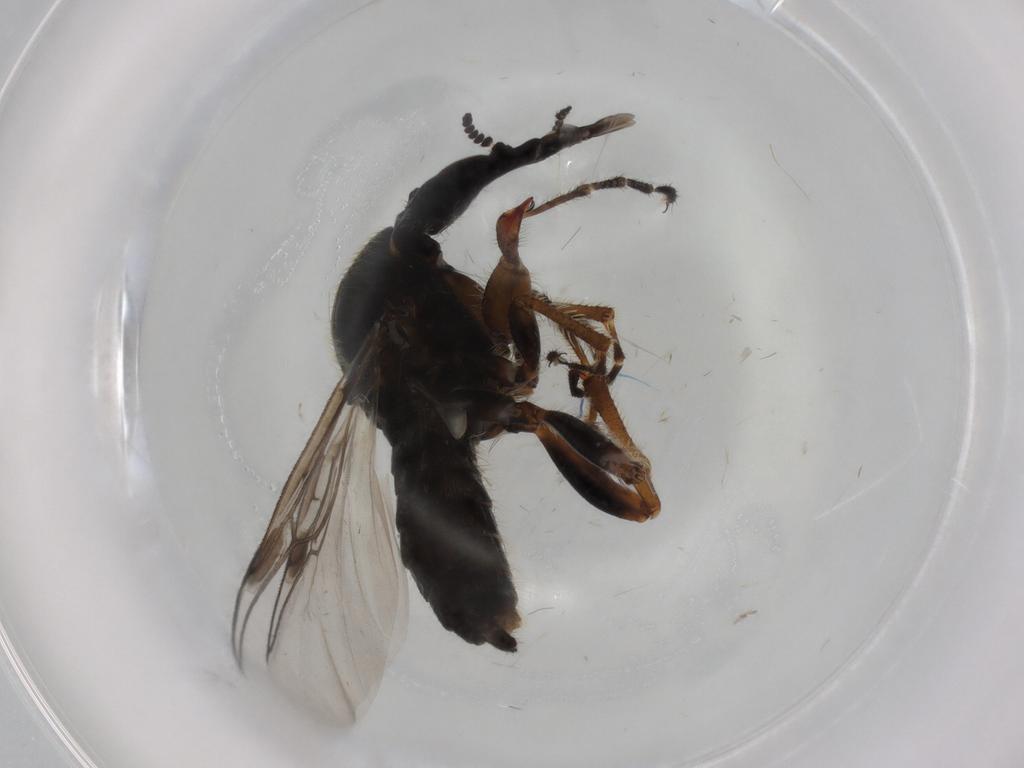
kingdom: Animalia
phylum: Arthropoda
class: Insecta
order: Diptera
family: Bibionidae
